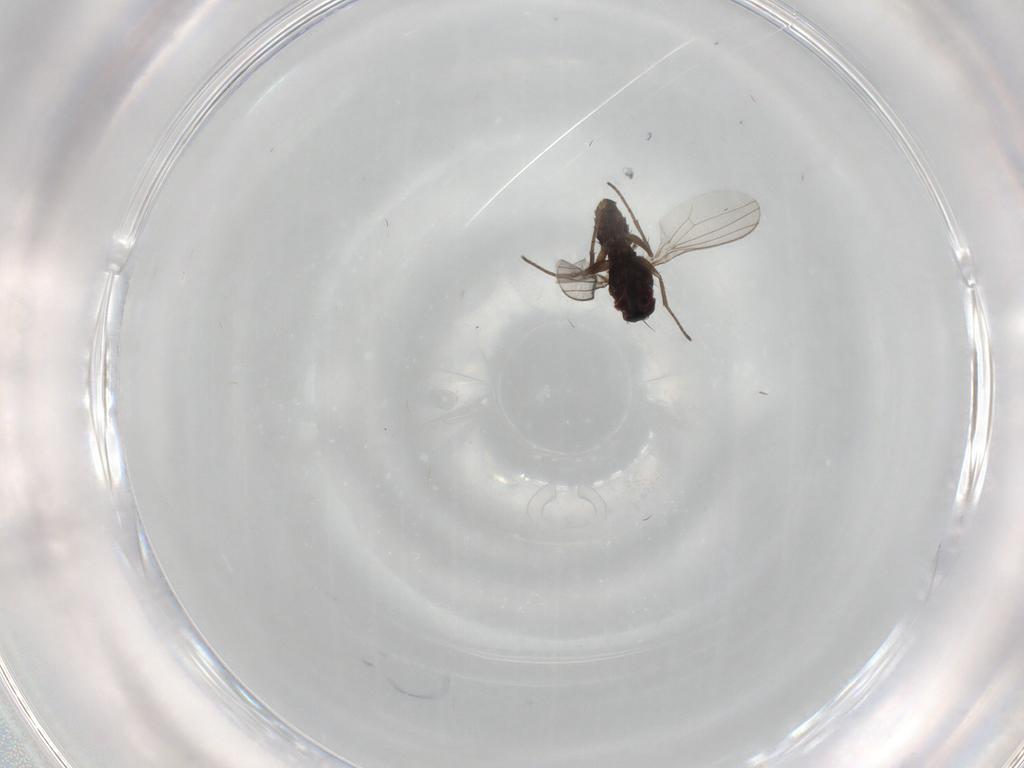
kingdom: Animalia
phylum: Arthropoda
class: Insecta
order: Diptera
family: Dolichopodidae
